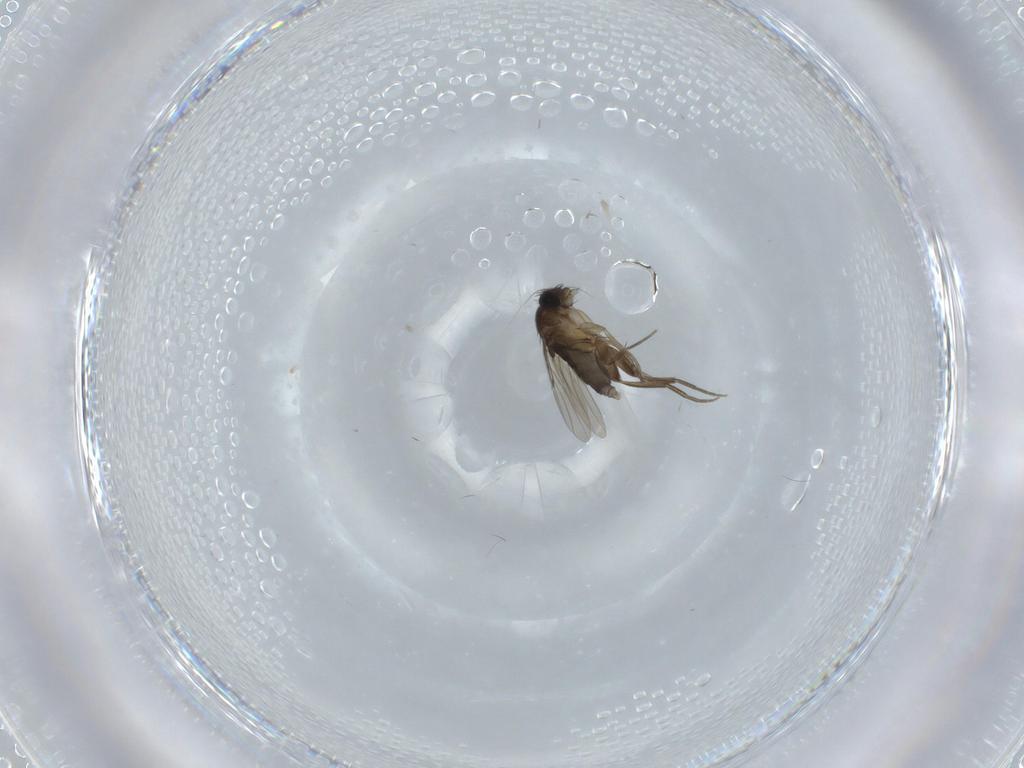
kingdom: Animalia
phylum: Arthropoda
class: Insecta
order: Diptera
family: Phoridae
